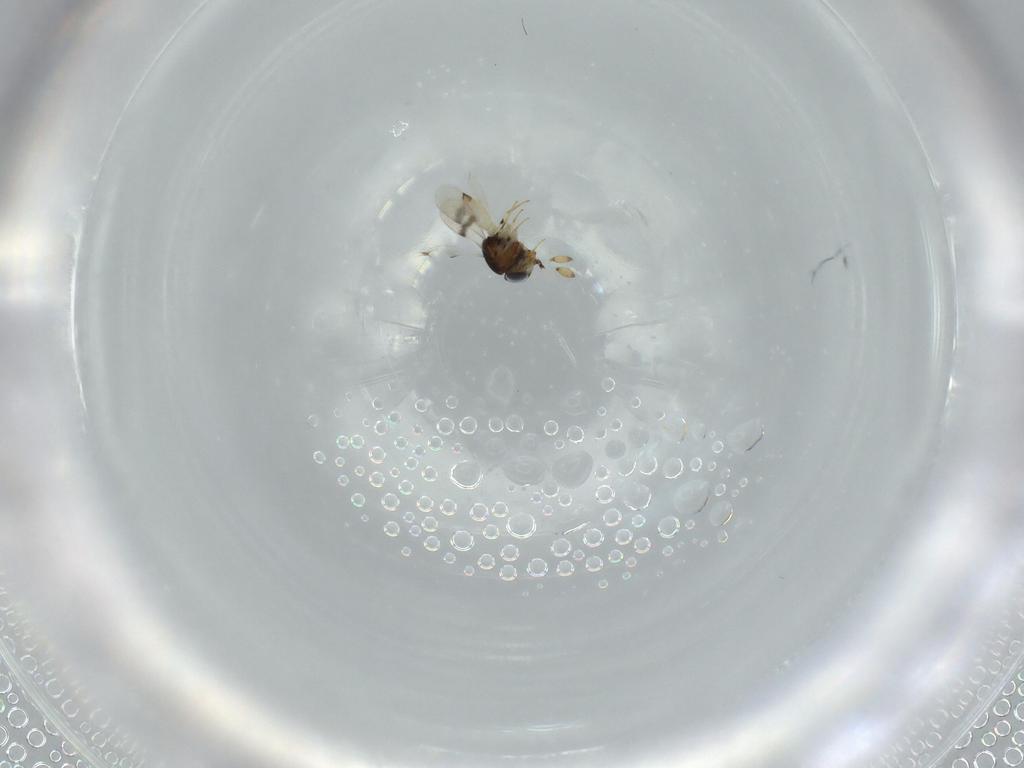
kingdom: Animalia
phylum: Arthropoda
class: Insecta
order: Hymenoptera
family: Scelionidae
